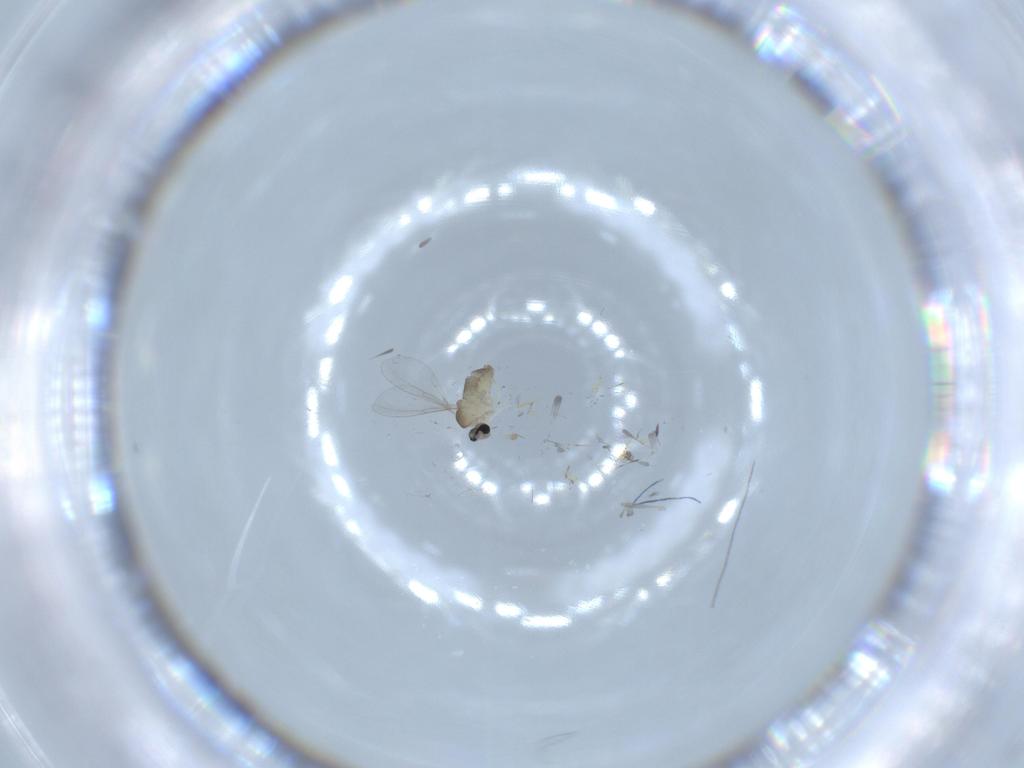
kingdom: Animalia
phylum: Arthropoda
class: Insecta
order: Diptera
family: Cecidomyiidae
